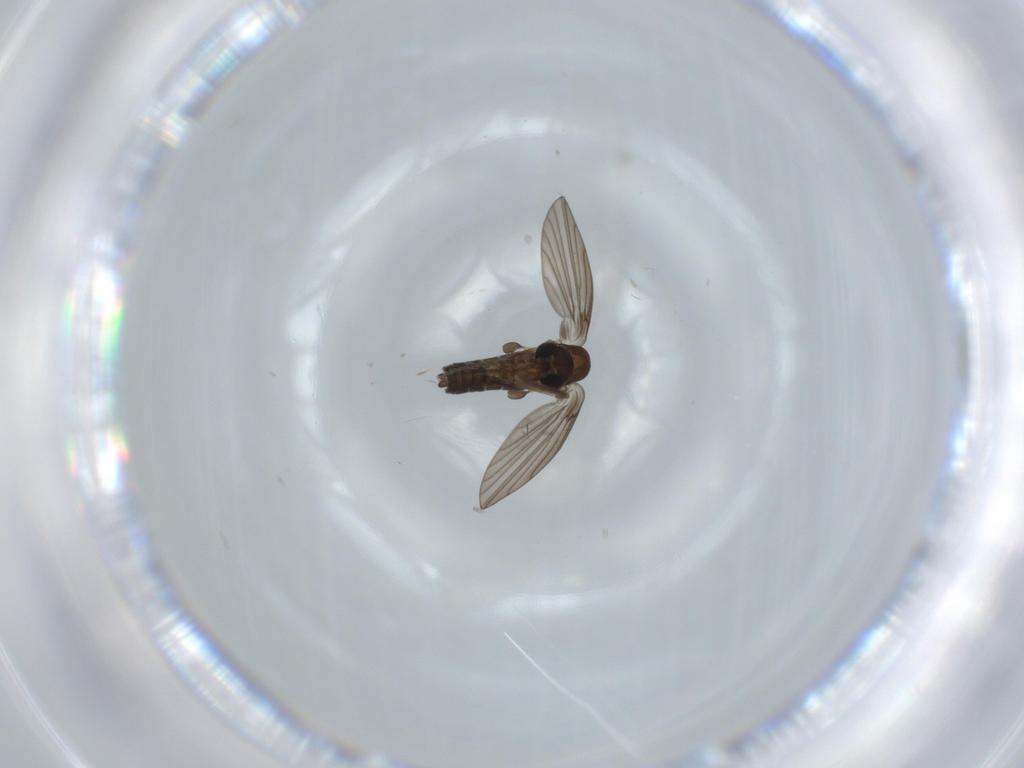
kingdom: Animalia
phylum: Arthropoda
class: Insecta
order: Diptera
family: Psychodidae
